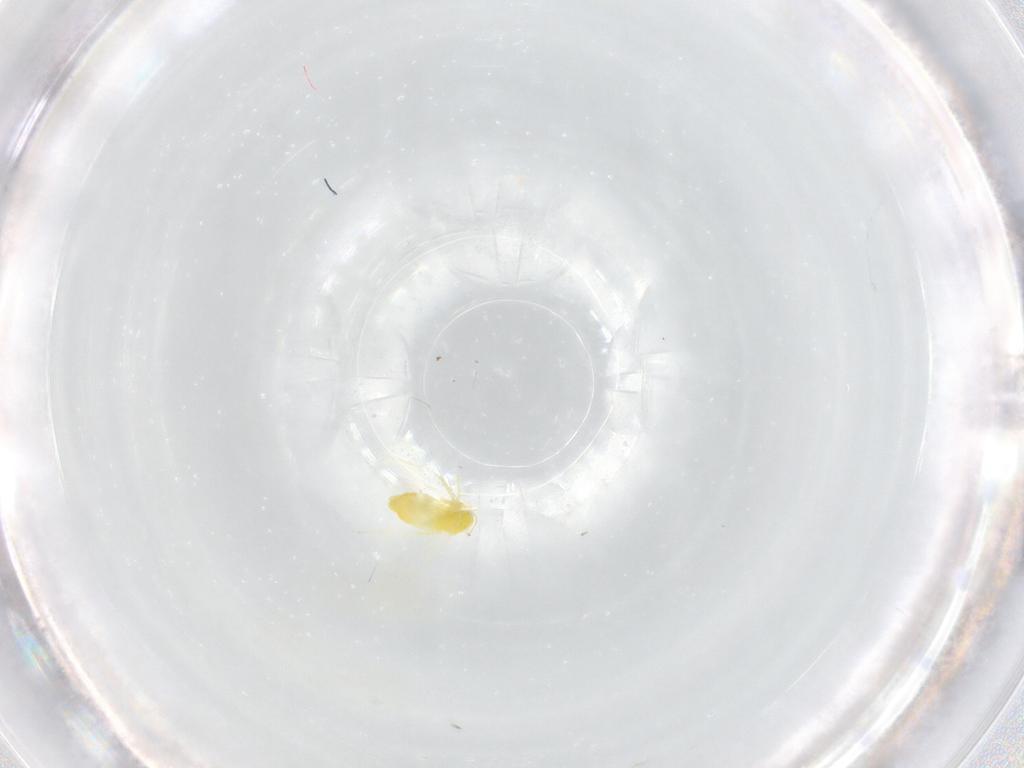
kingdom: Animalia
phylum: Arthropoda
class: Insecta
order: Hemiptera
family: Aleyrodidae
